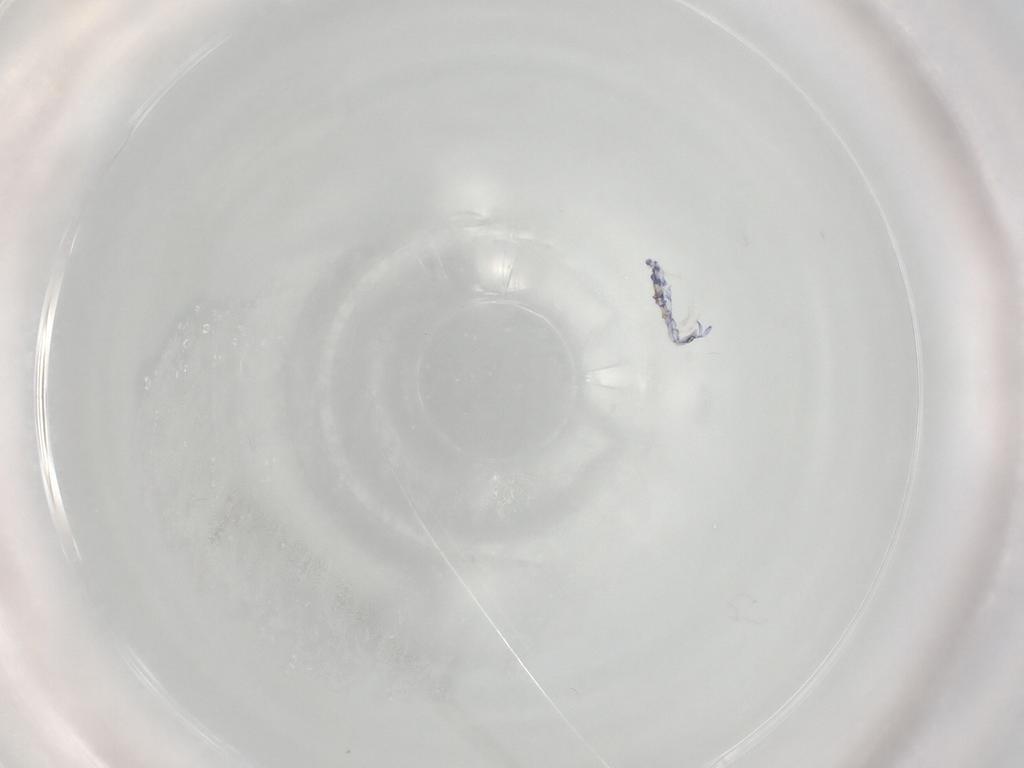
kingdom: Animalia
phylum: Arthropoda
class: Collembola
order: Entomobryomorpha
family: Entomobryidae
